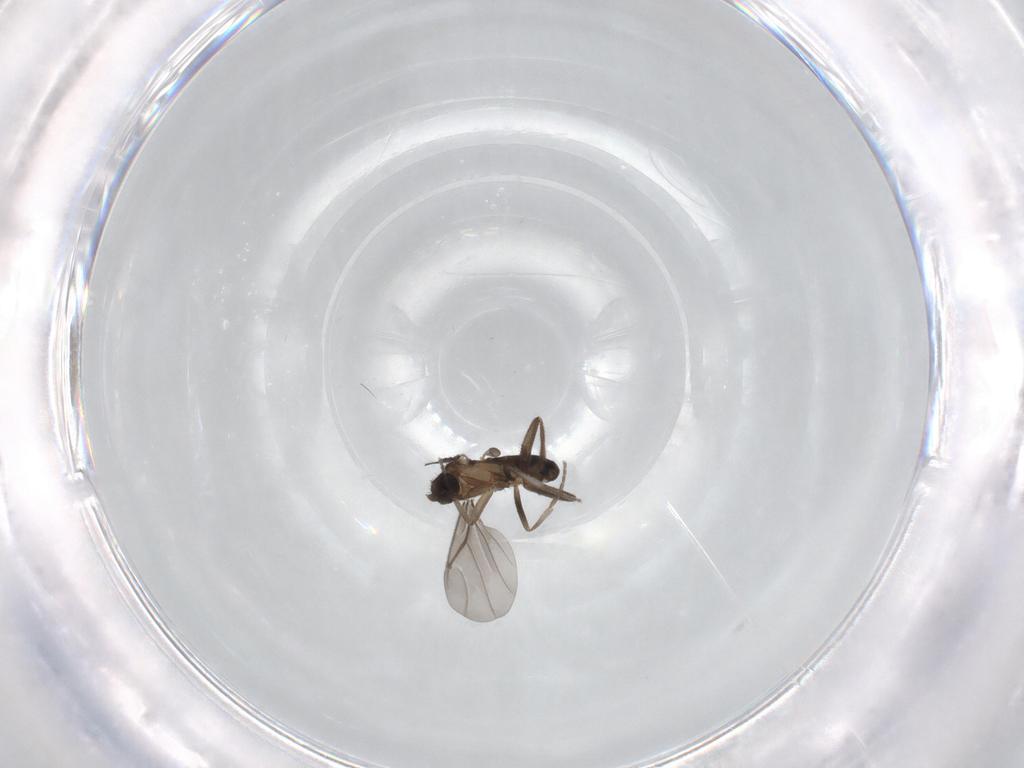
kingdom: Animalia
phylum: Arthropoda
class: Insecta
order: Diptera
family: Phoridae
